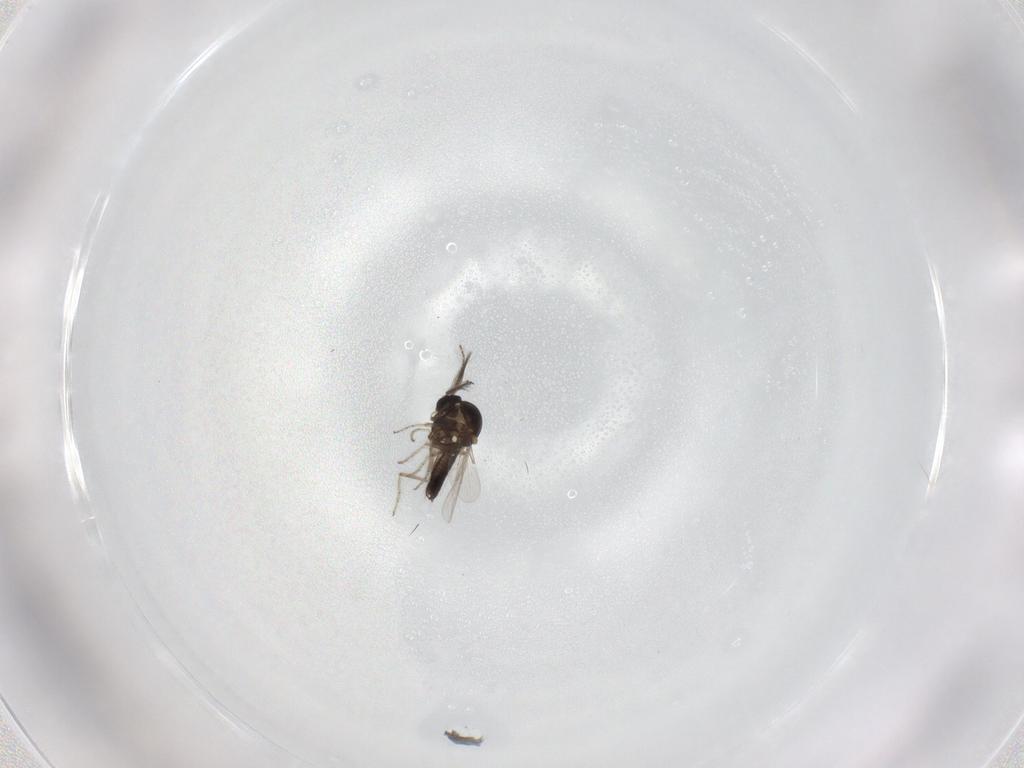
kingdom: Animalia
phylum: Arthropoda
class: Insecta
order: Diptera
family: Ceratopogonidae
